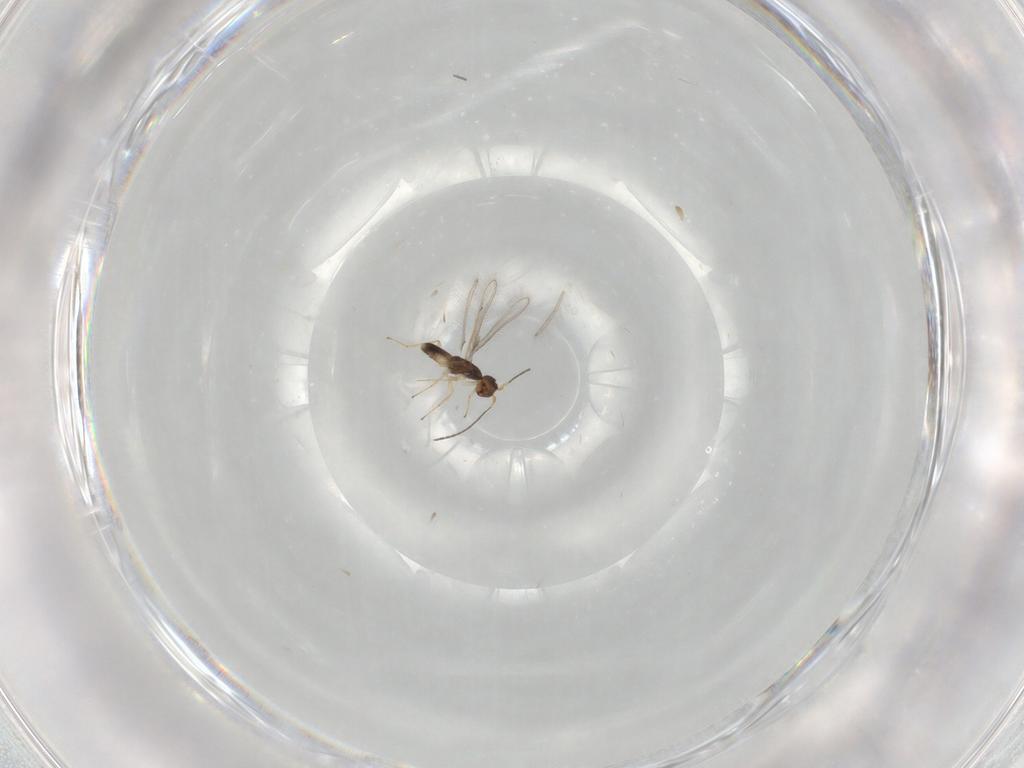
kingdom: Animalia
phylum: Arthropoda
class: Insecta
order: Hymenoptera
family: Mymaridae
